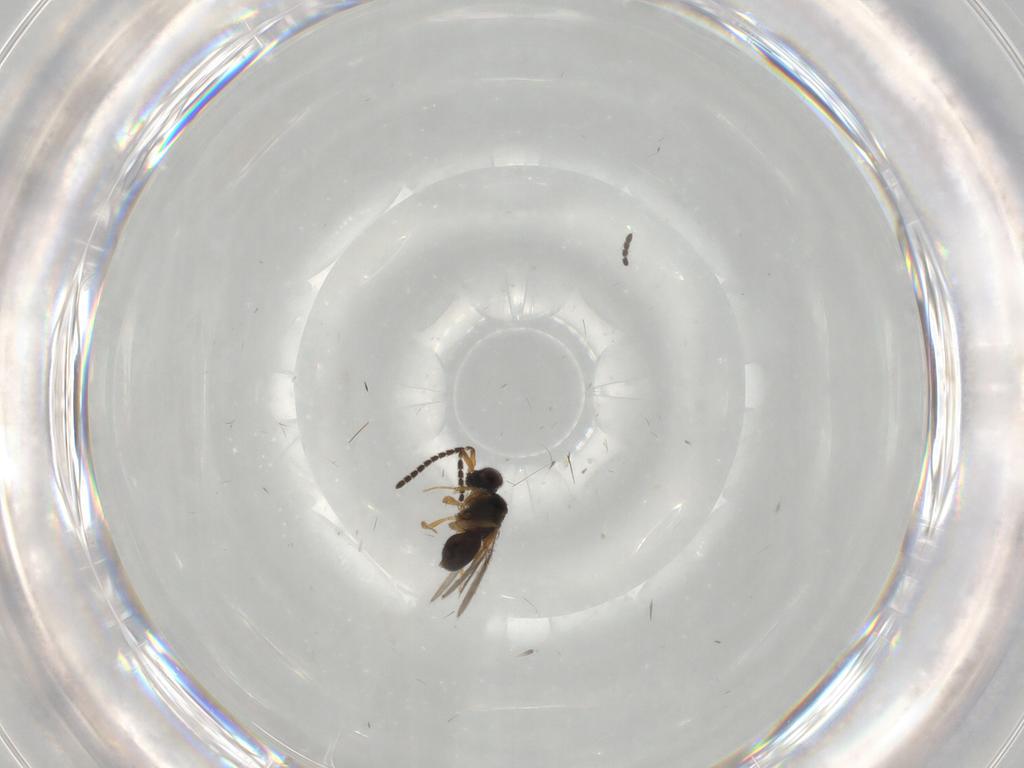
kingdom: Animalia
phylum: Arthropoda
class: Insecta
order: Hymenoptera
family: Ceraphronidae
